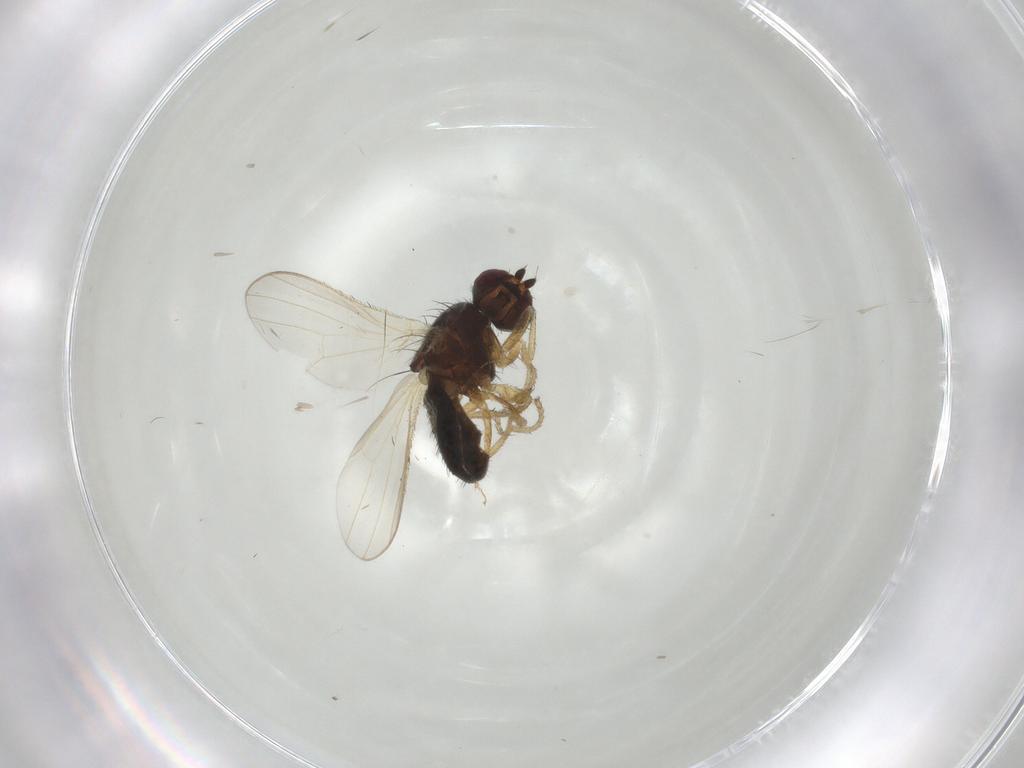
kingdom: Animalia
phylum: Arthropoda
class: Insecta
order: Diptera
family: Heleomyzidae
